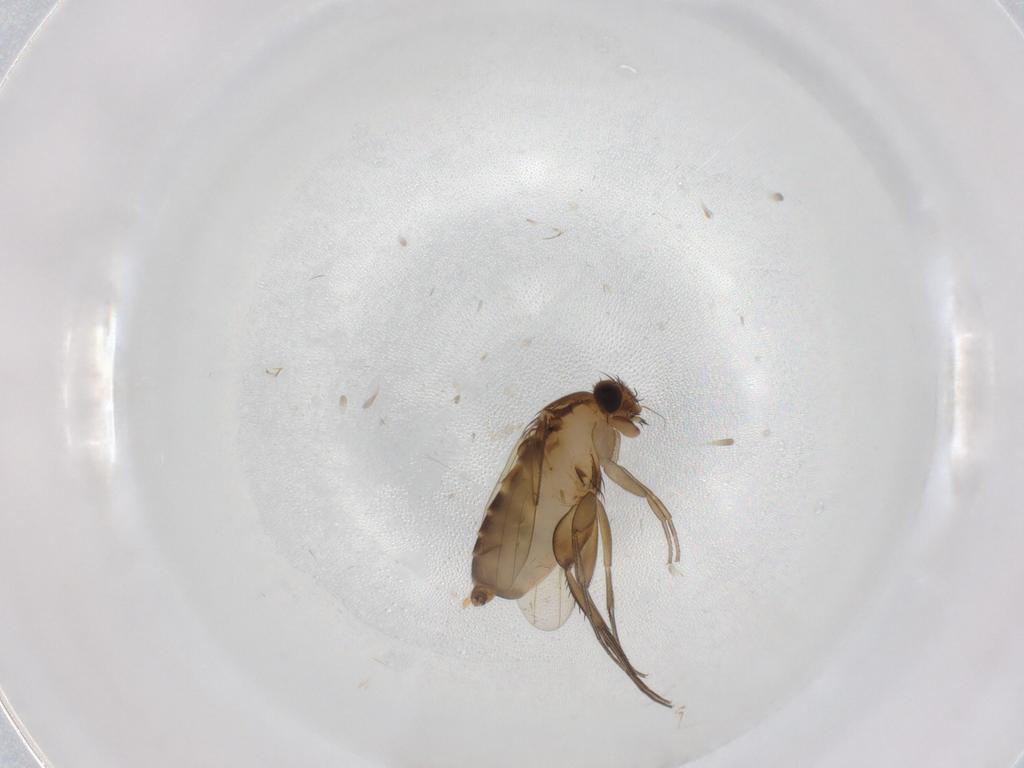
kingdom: Animalia
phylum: Arthropoda
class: Insecta
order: Diptera
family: Phoridae
